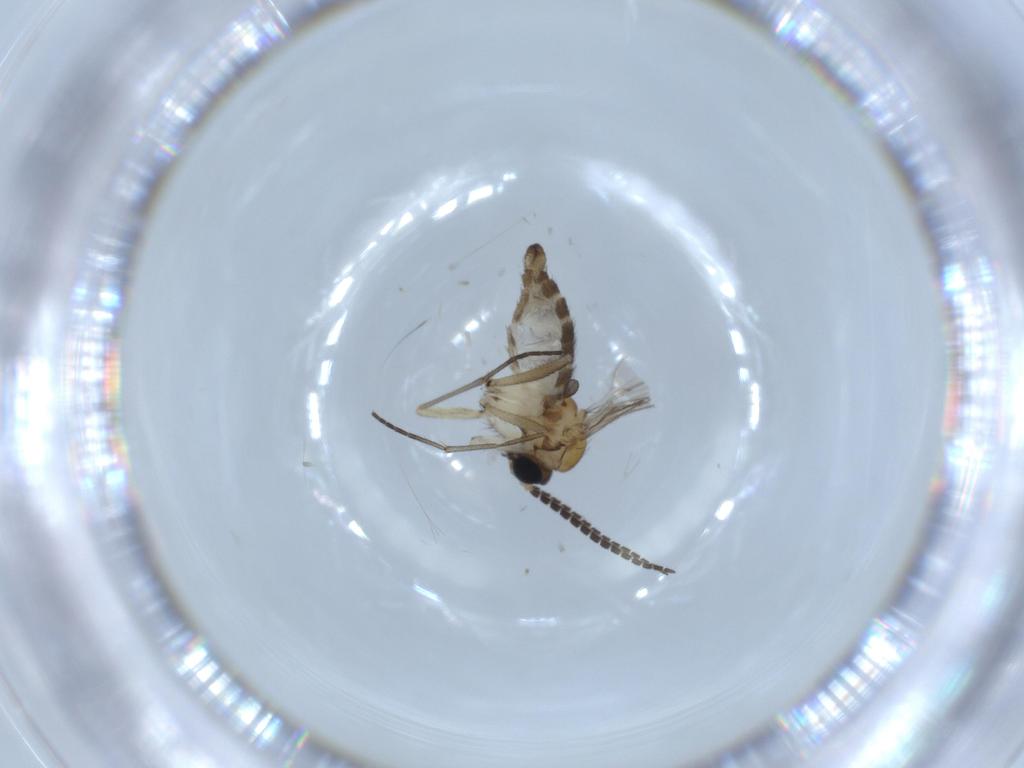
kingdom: Animalia
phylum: Arthropoda
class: Insecta
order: Diptera
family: Sciaridae
